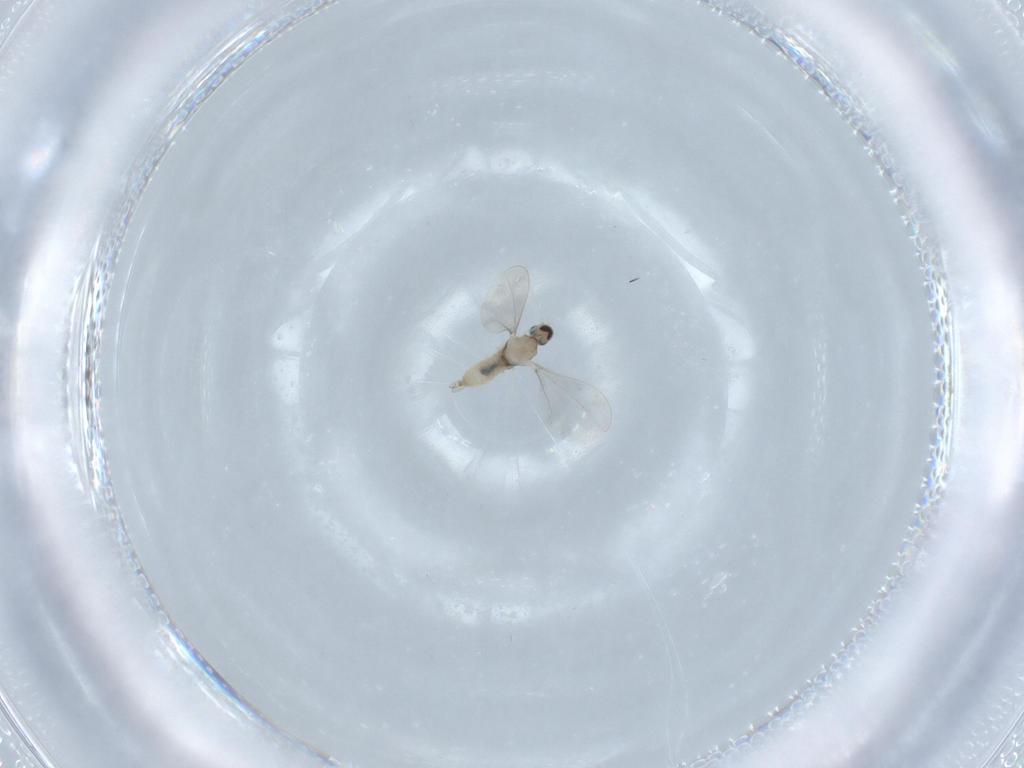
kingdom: Animalia
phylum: Arthropoda
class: Insecta
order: Diptera
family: Cecidomyiidae
